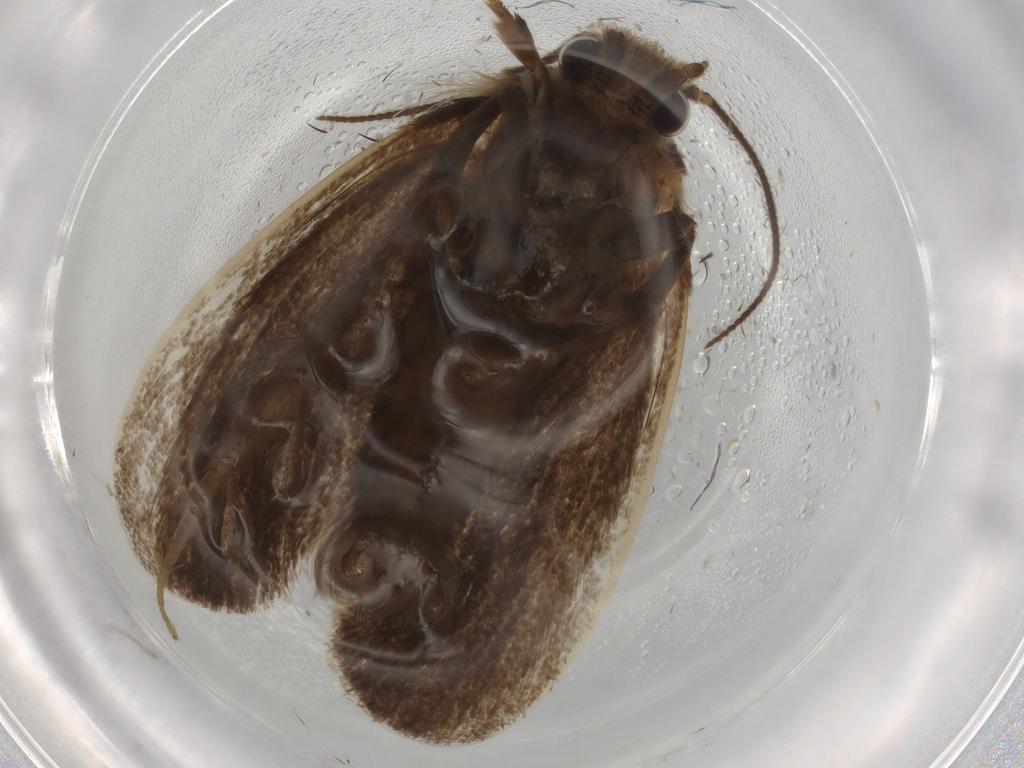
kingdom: Animalia
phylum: Arthropoda
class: Insecta
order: Lepidoptera
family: Tineidae
